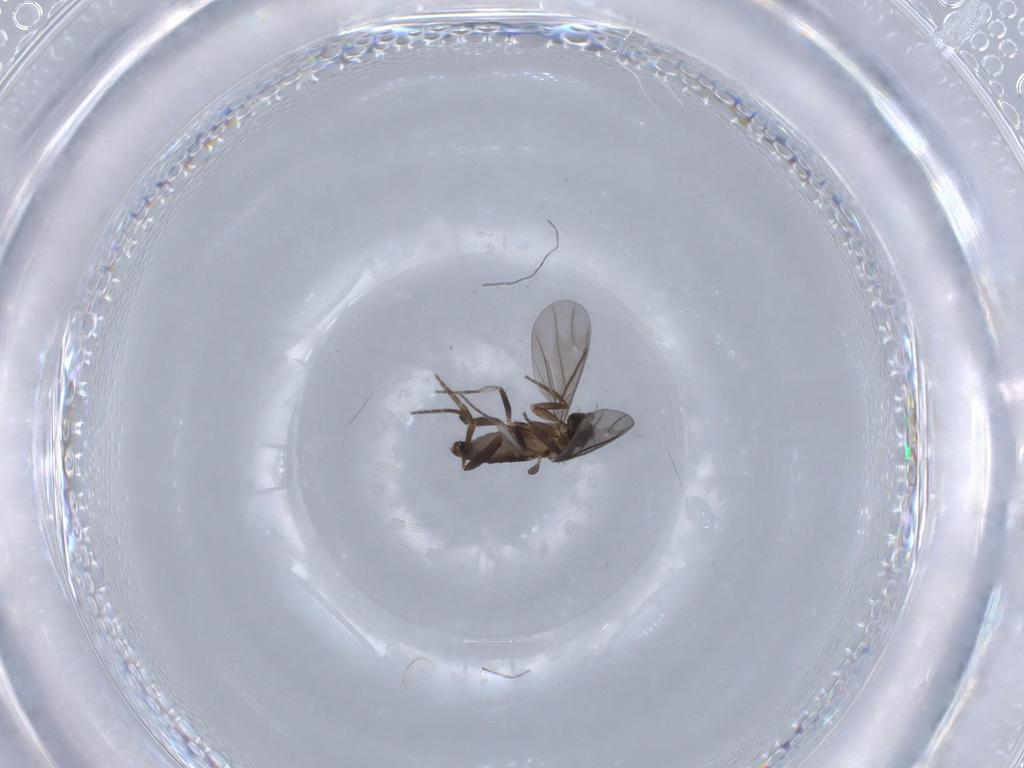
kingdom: Animalia
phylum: Arthropoda
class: Insecta
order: Diptera
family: Phoridae
